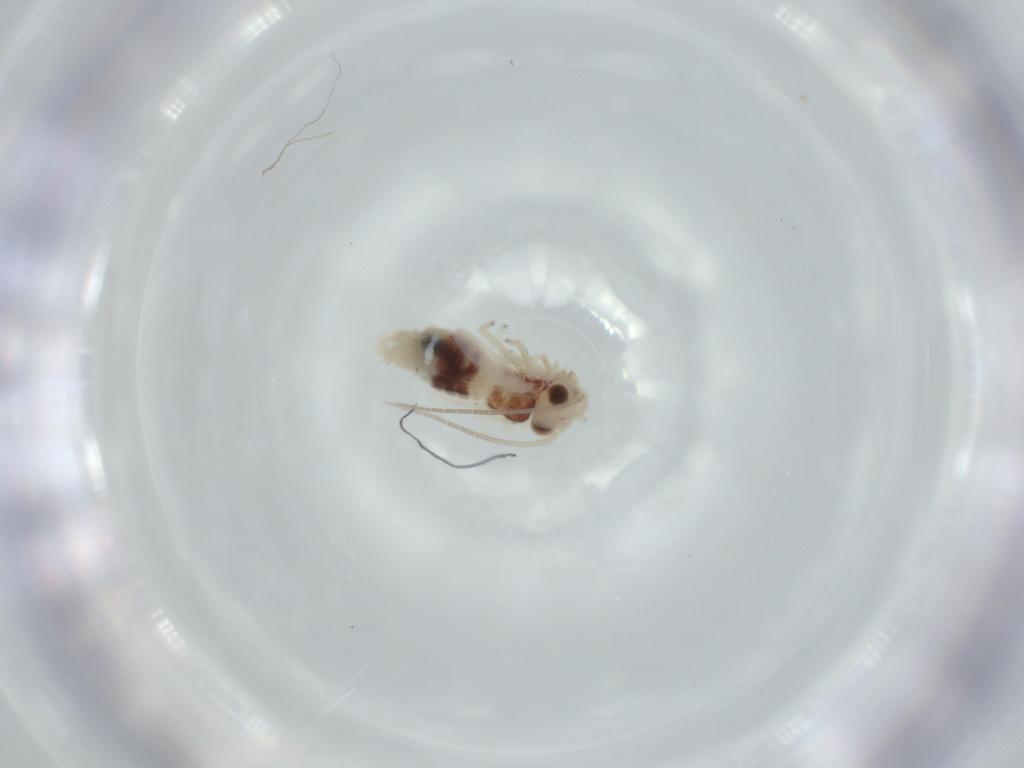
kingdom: Animalia
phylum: Arthropoda
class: Insecta
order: Psocodea
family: Caeciliusidae
